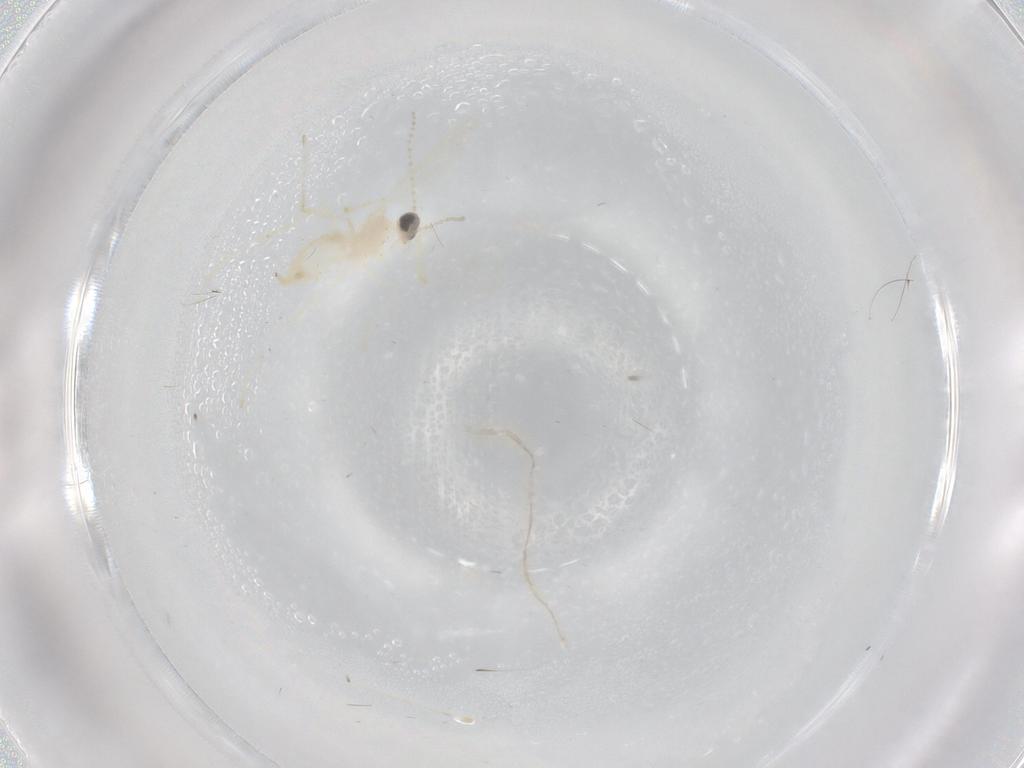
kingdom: Animalia
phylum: Arthropoda
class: Insecta
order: Diptera
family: Cecidomyiidae
